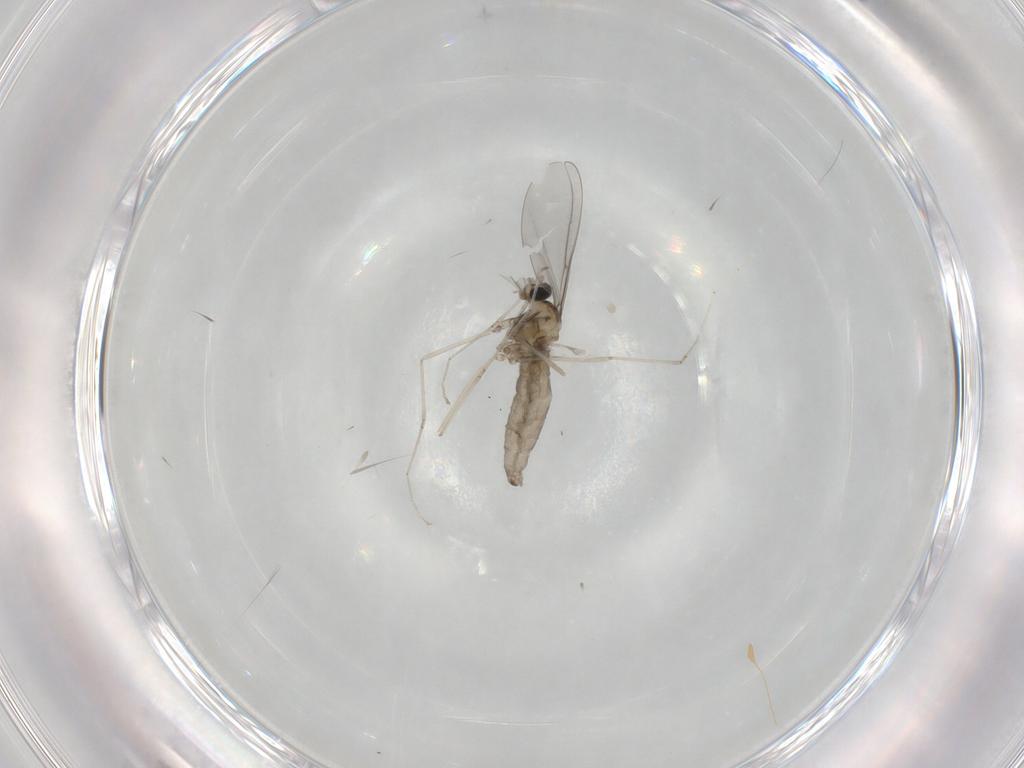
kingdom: Animalia
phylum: Arthropoda
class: Insecta
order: Diptera
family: Cecidomyiidae
